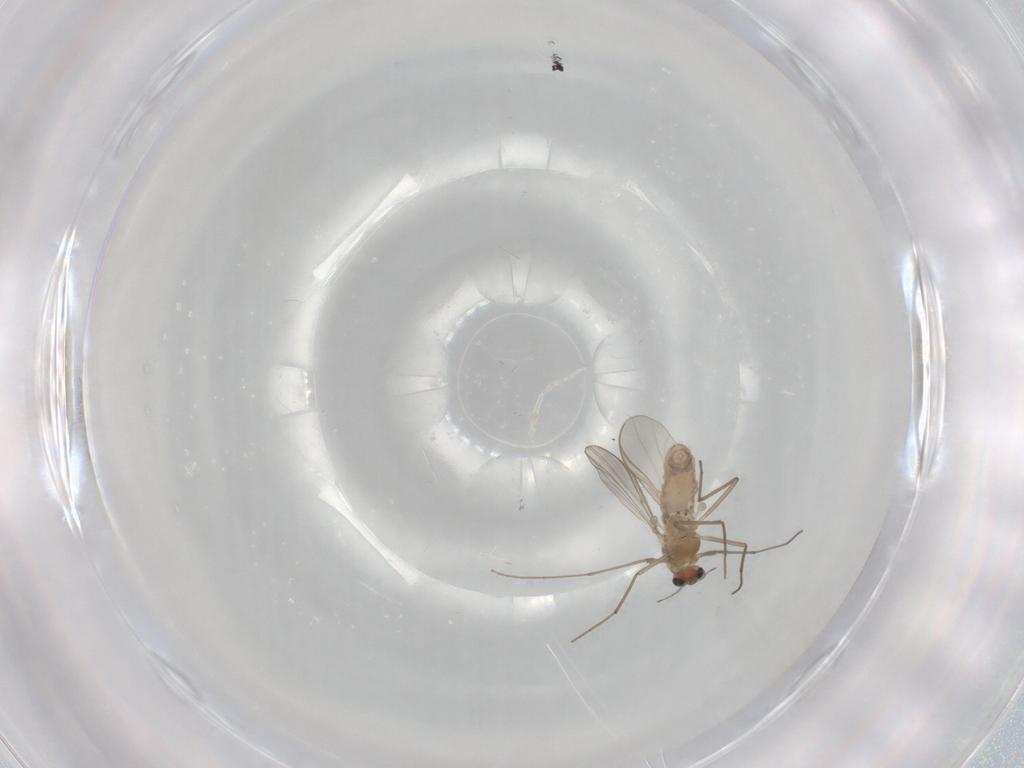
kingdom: Animalia
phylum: Arthropoda
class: Insecta
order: Diptera
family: Chironomidae
